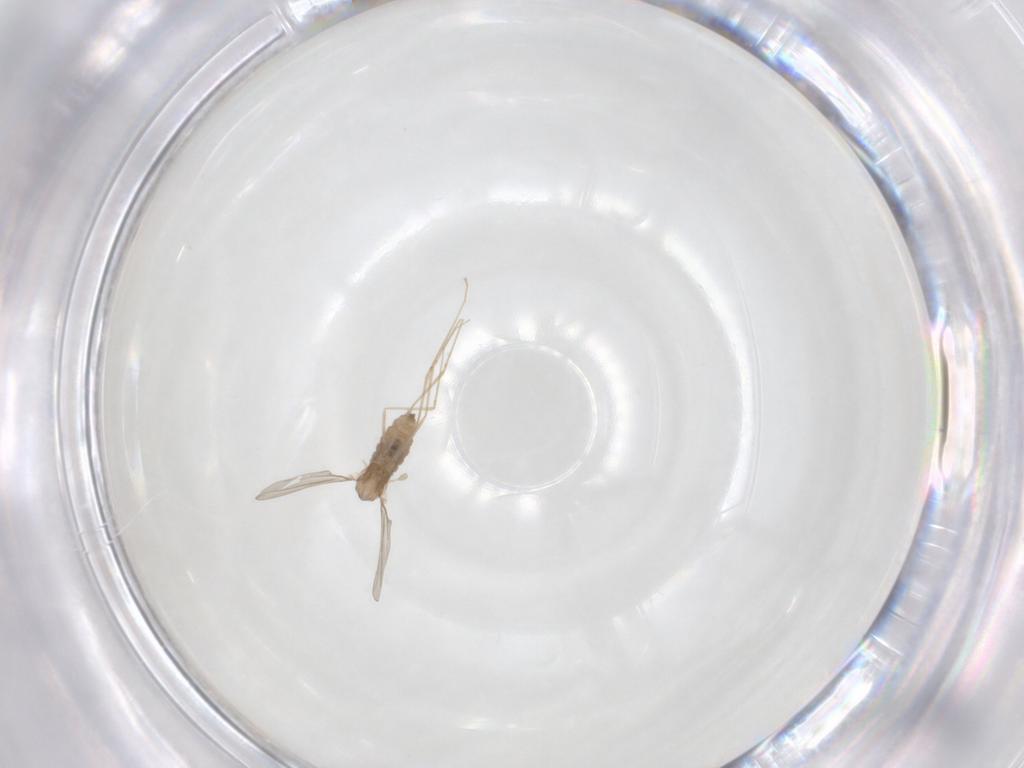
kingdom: Animalia
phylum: Arthropoda
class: Insecta
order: Diptera
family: Cecidomyiidae
